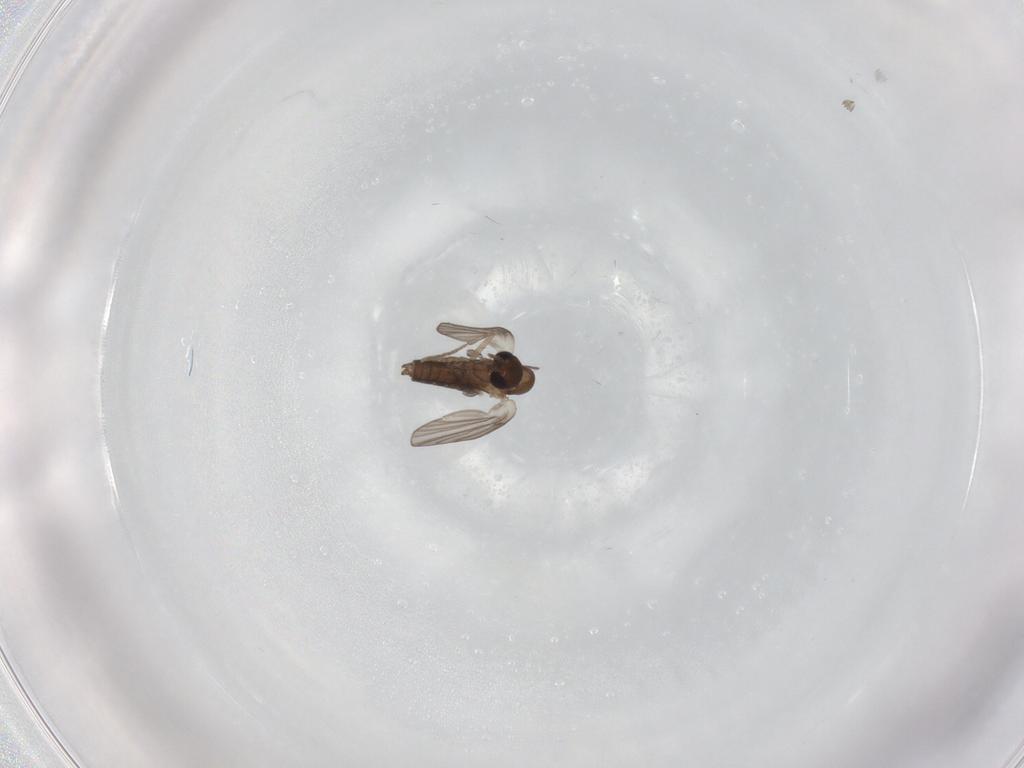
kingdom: Animalia
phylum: Arthropoda
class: Insecta
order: Diptera
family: Cecidomyiidae
